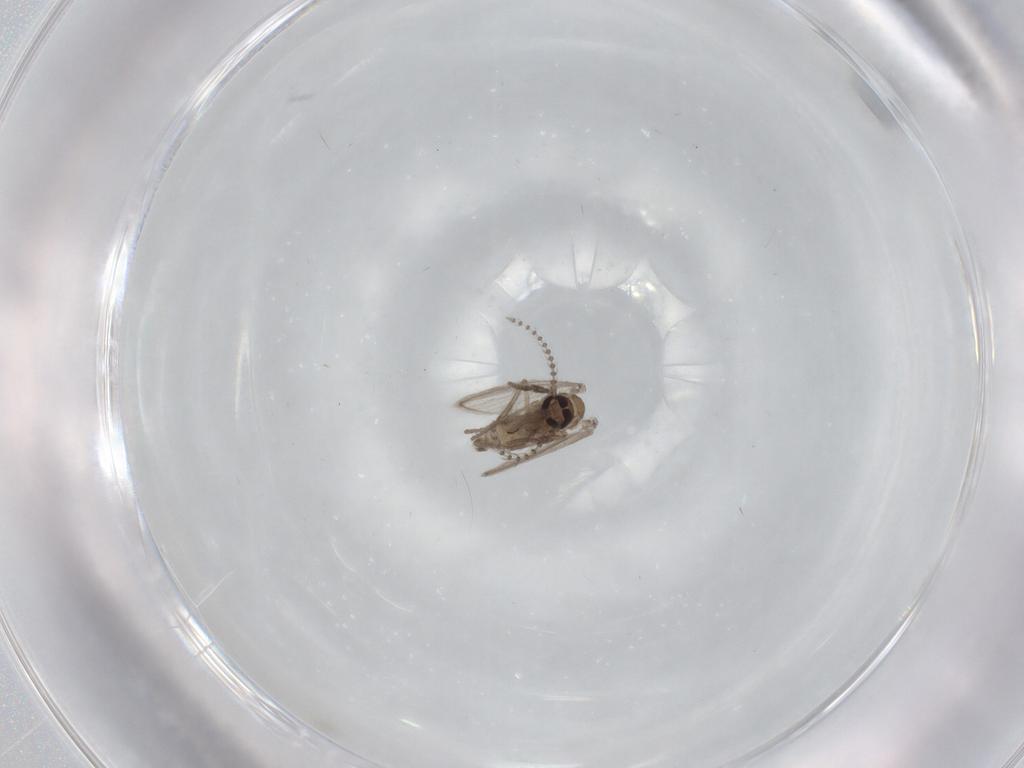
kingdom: Animalia
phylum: Arthropoda
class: Insecta
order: Diptera
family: Psychodidae
